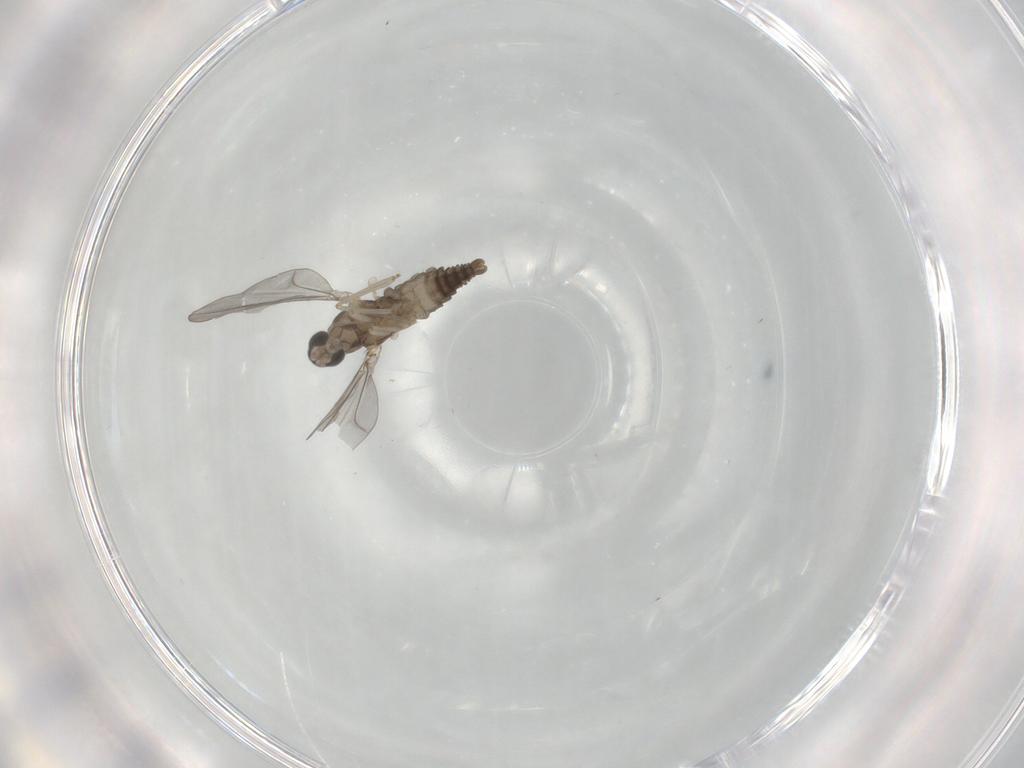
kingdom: Animalia
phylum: Arthropoda
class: Insecta
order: Diptera
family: Cecidomyiidae
